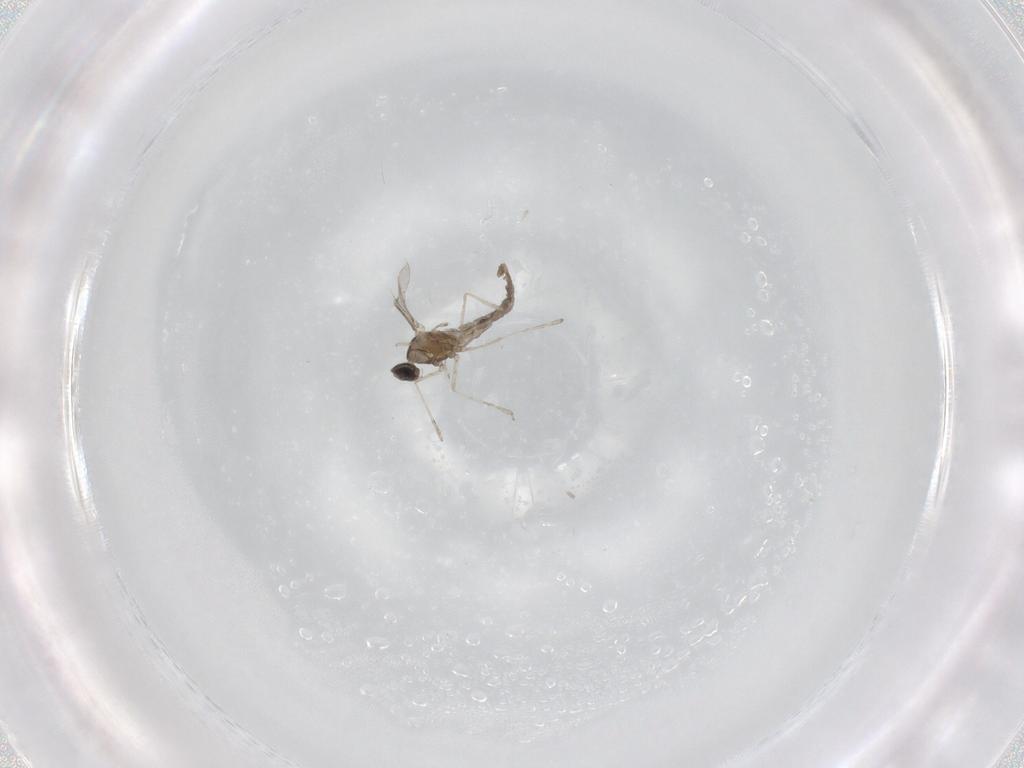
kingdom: Animalia
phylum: Arthropoda
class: Insecta
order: Diptera
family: Cecidomyiidae
